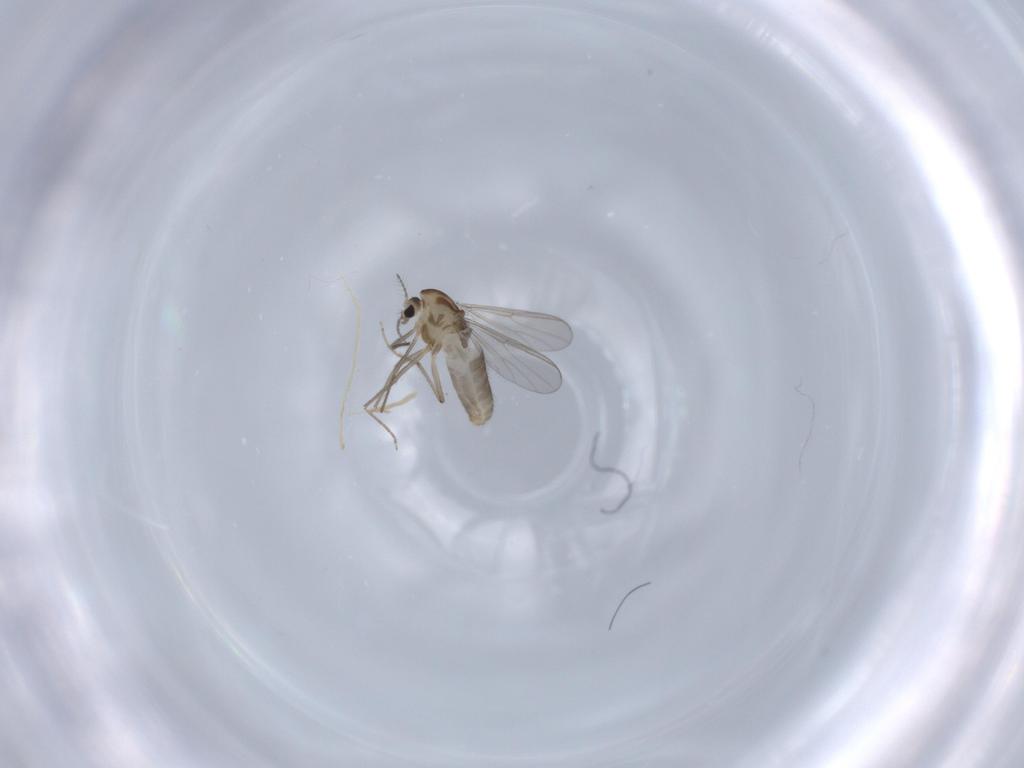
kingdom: Animalia
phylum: Arthropoda
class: Insecta
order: Diptera
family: Chironomidae
